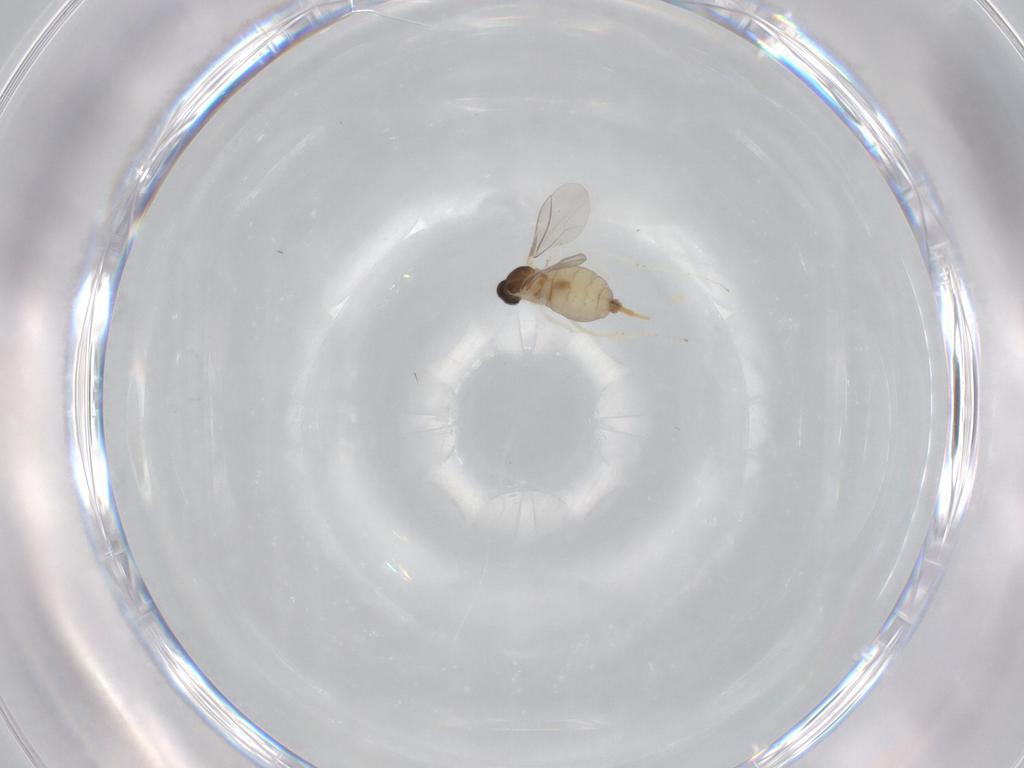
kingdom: Animalia
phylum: Arthropoda
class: Insecta
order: Diptera
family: Cecidomyiidae
